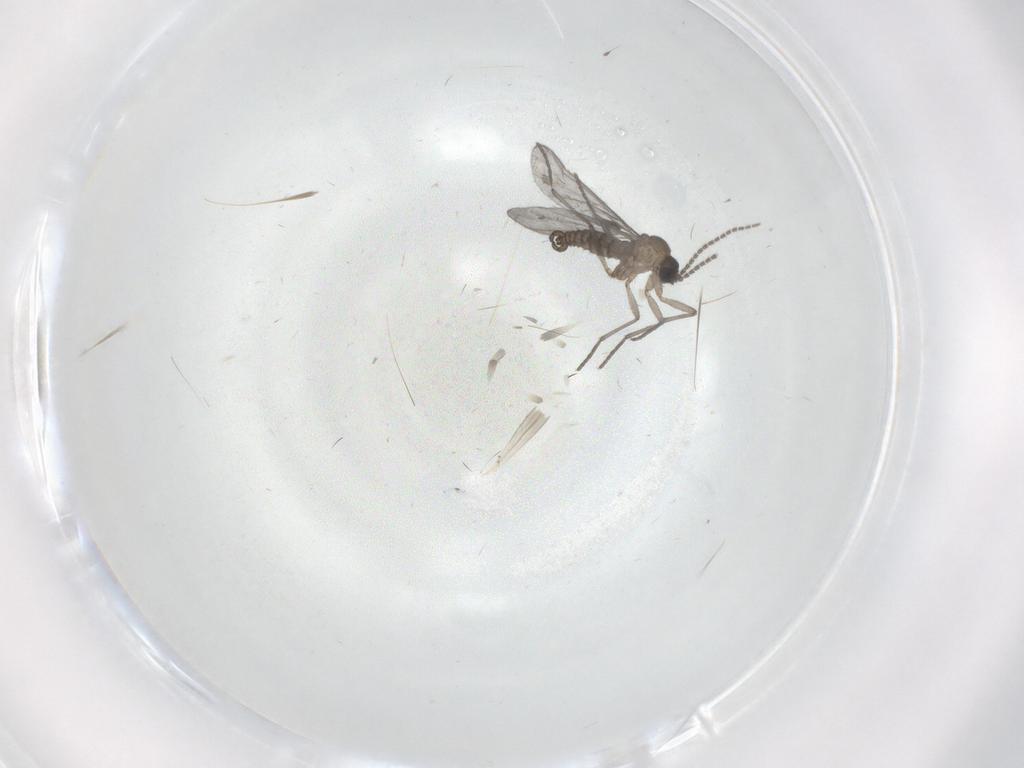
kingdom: Animalia
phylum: Arthropoda
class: Insecta
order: Diptera
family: Sciaridae
